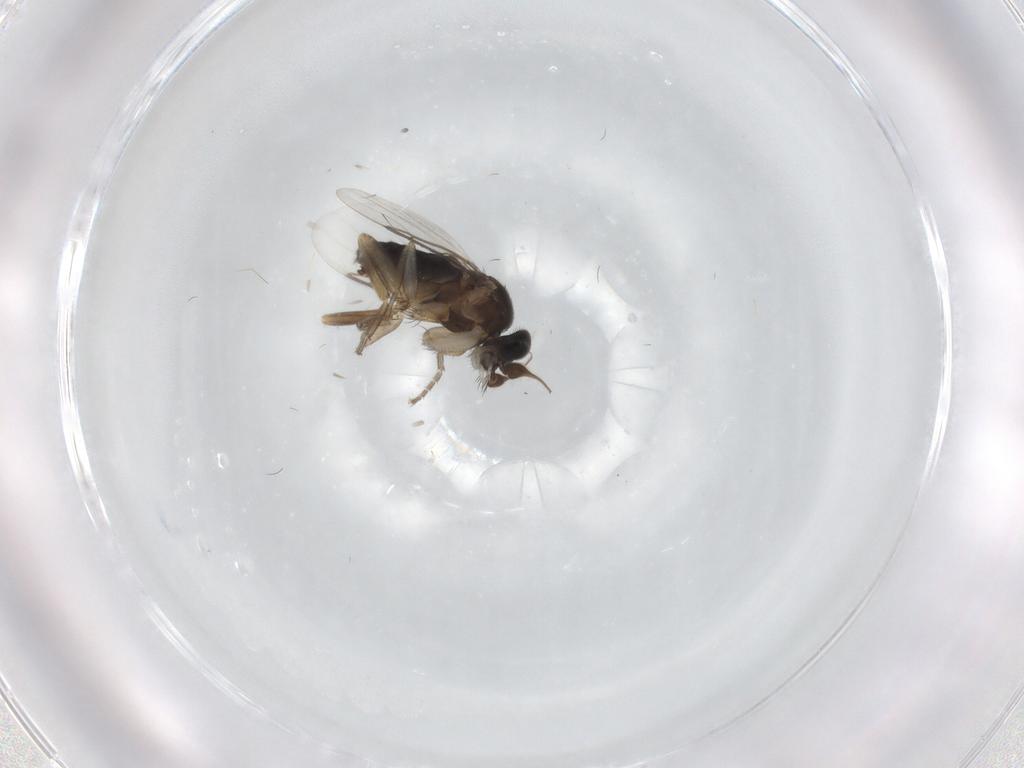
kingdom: Animalia
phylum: Arthropoda
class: Insecta
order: Diptera
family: Phoridae
